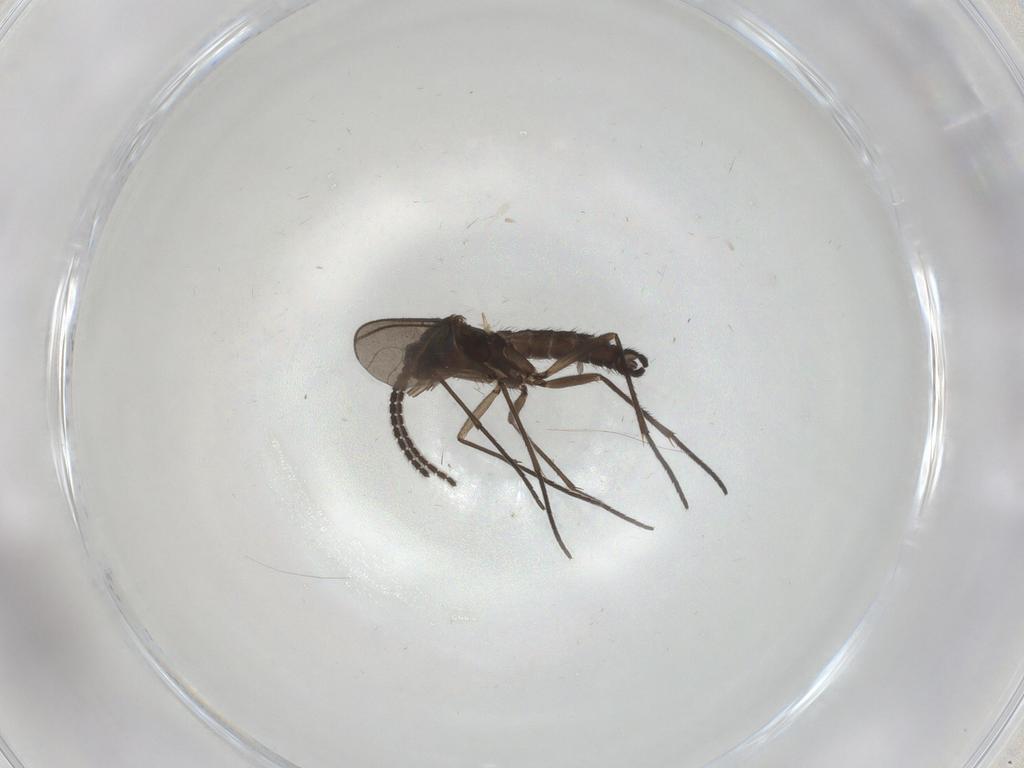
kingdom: Animalia
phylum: Arthropoda
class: Insecta
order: Diptera
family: Sciaridae
